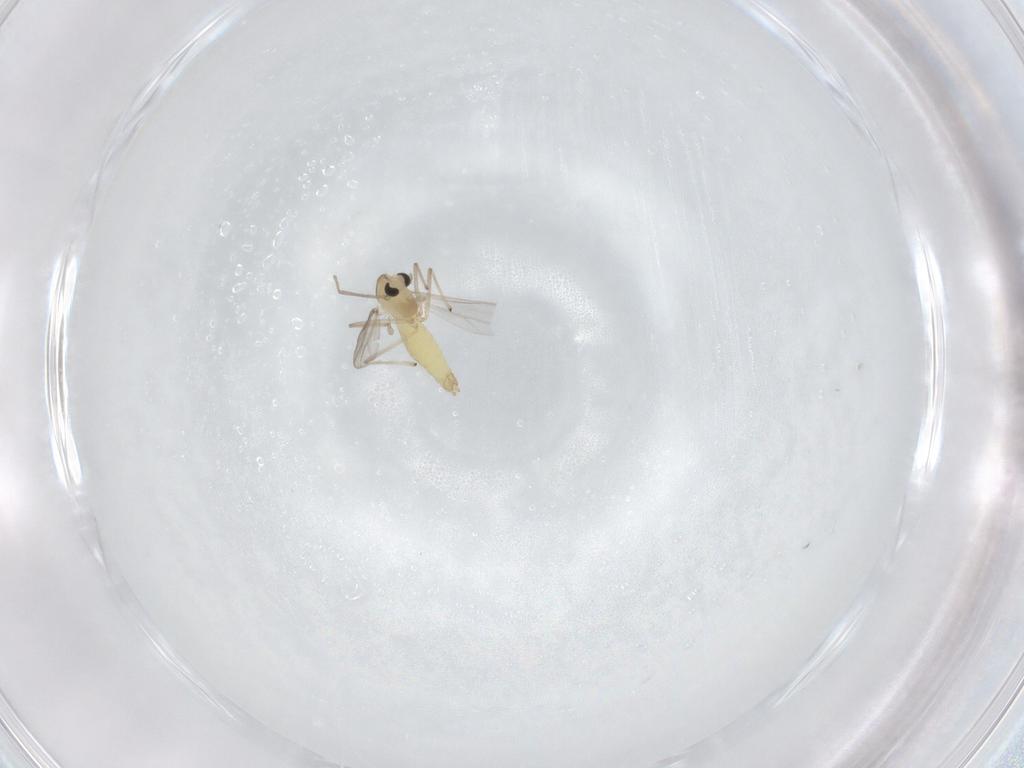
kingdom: Animalia
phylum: Arthropoda
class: Insecta
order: Diptera
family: Chironomidae
